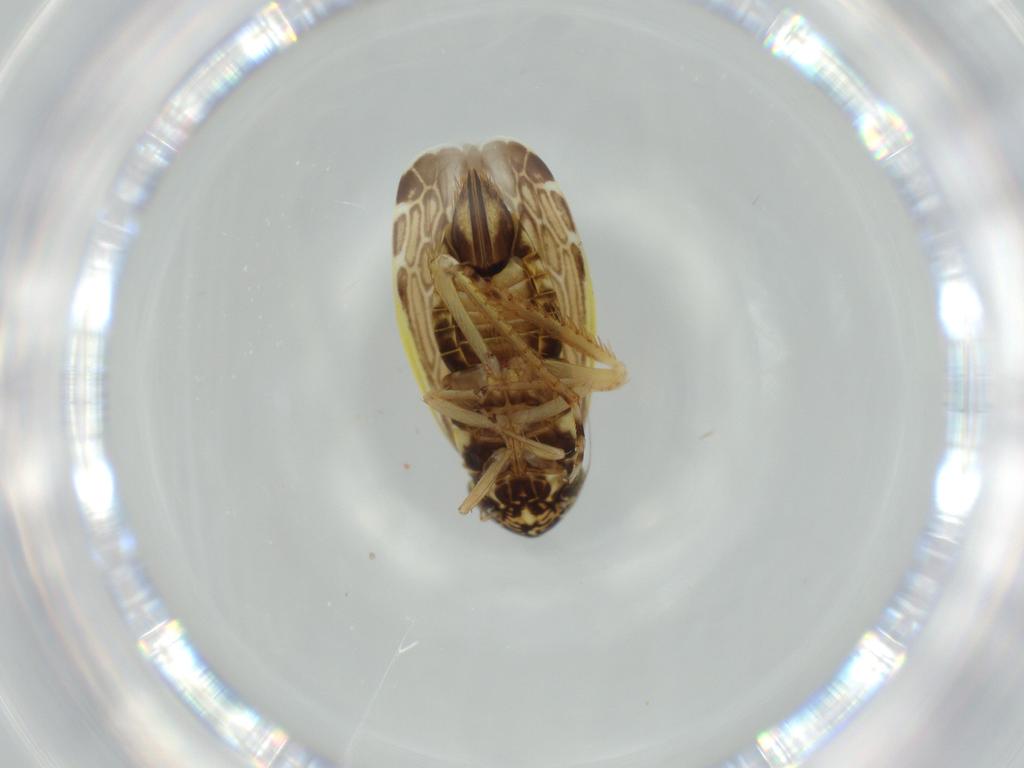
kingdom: Animalia
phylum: Arthropoda
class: Insecta
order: Hemiptera
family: Cicadellidae
